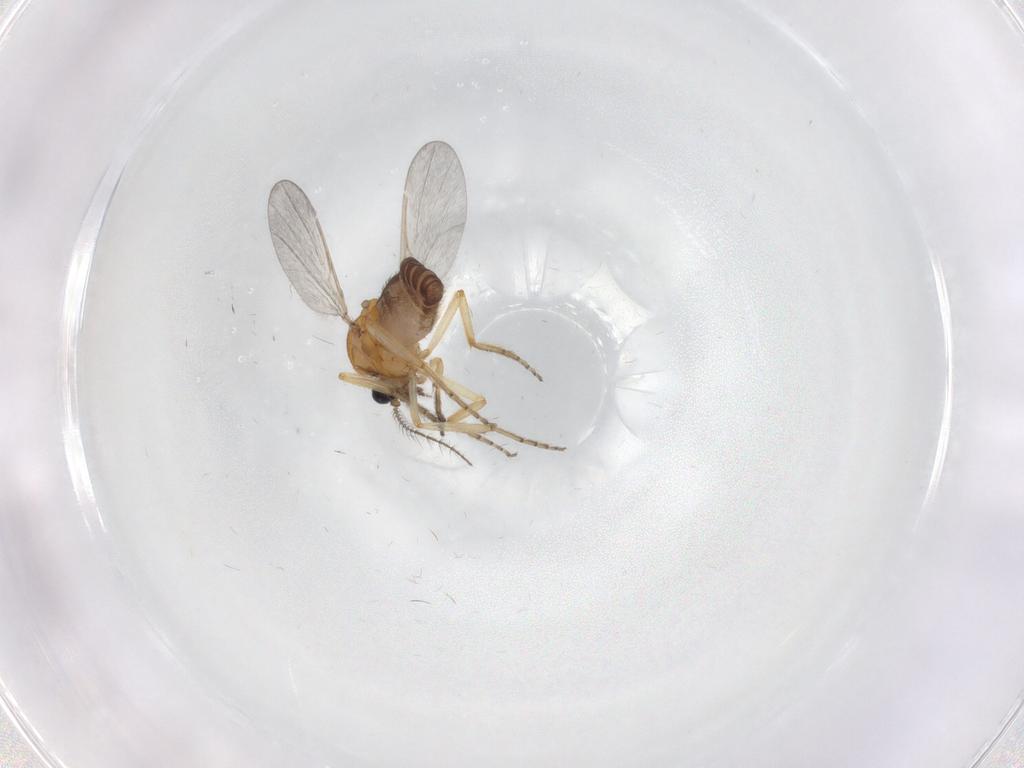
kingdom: Animalia
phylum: Arthropoda
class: Insecta
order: Diptera
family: Ceratopogonidae
